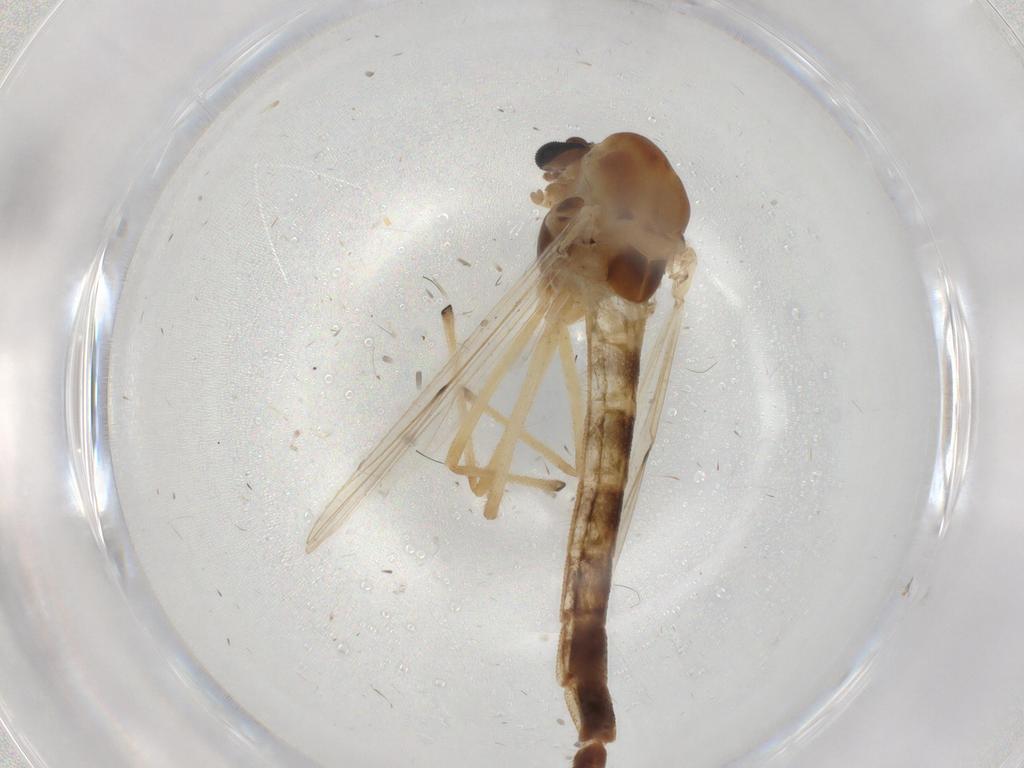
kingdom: Animalia
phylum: Arthropoda
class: Insecta
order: Diptera
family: Chironomidae
